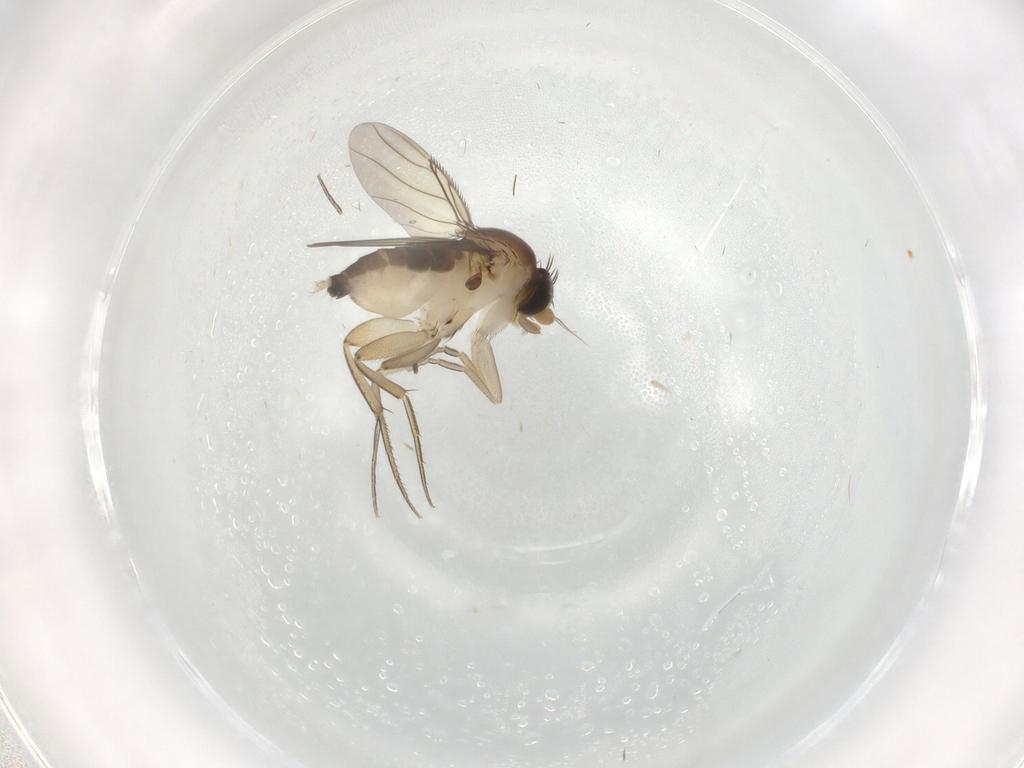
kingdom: Animalia
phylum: Arthropoda
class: Insecta
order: Diptera
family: Phoridae
